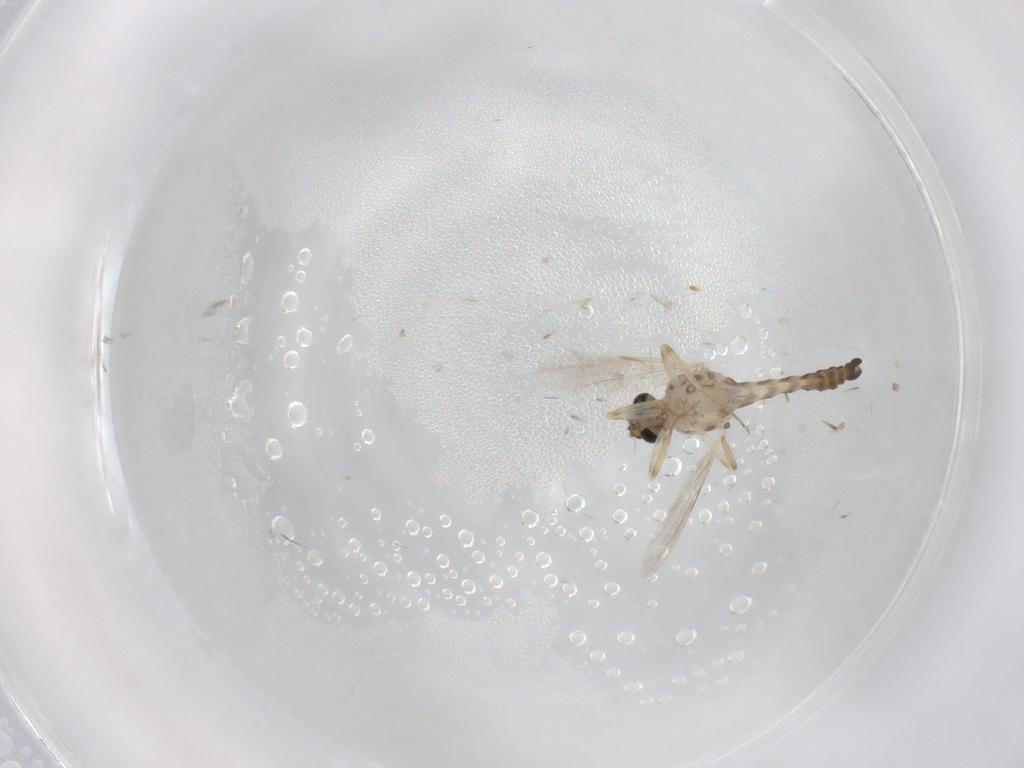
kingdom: Animalia
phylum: Arthropoda
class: Insecta
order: Diptera
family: Ceratopogonidae
